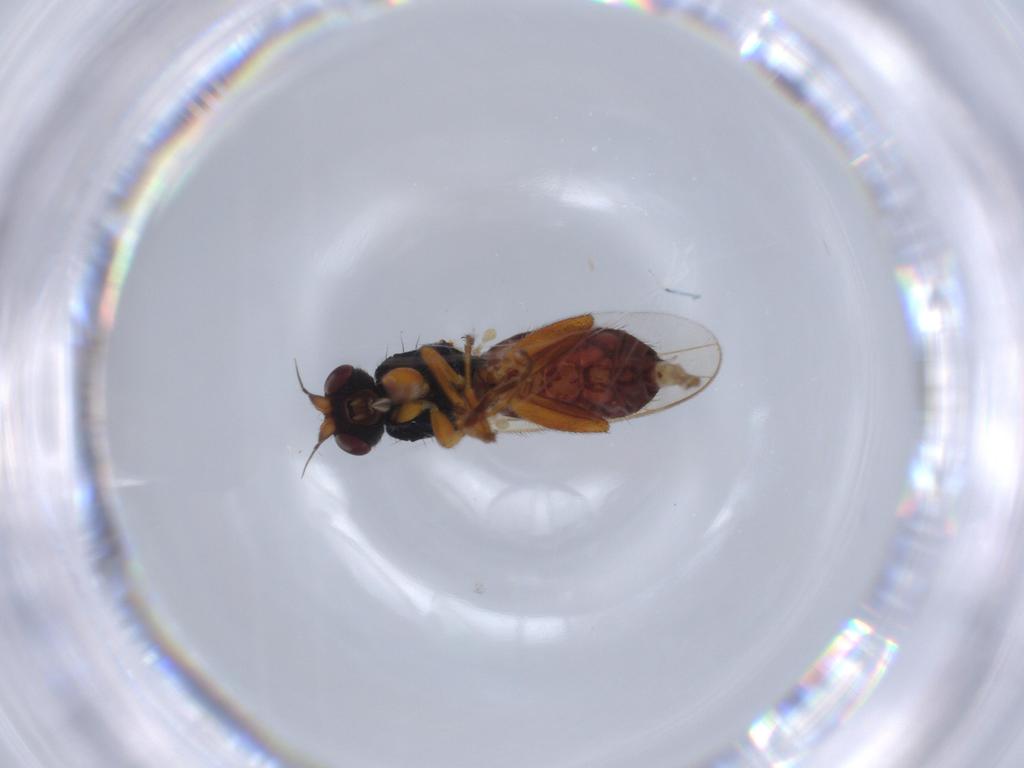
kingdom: Animalia
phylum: Arthropoda
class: Insecta
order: Diptera
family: Chloropidae
